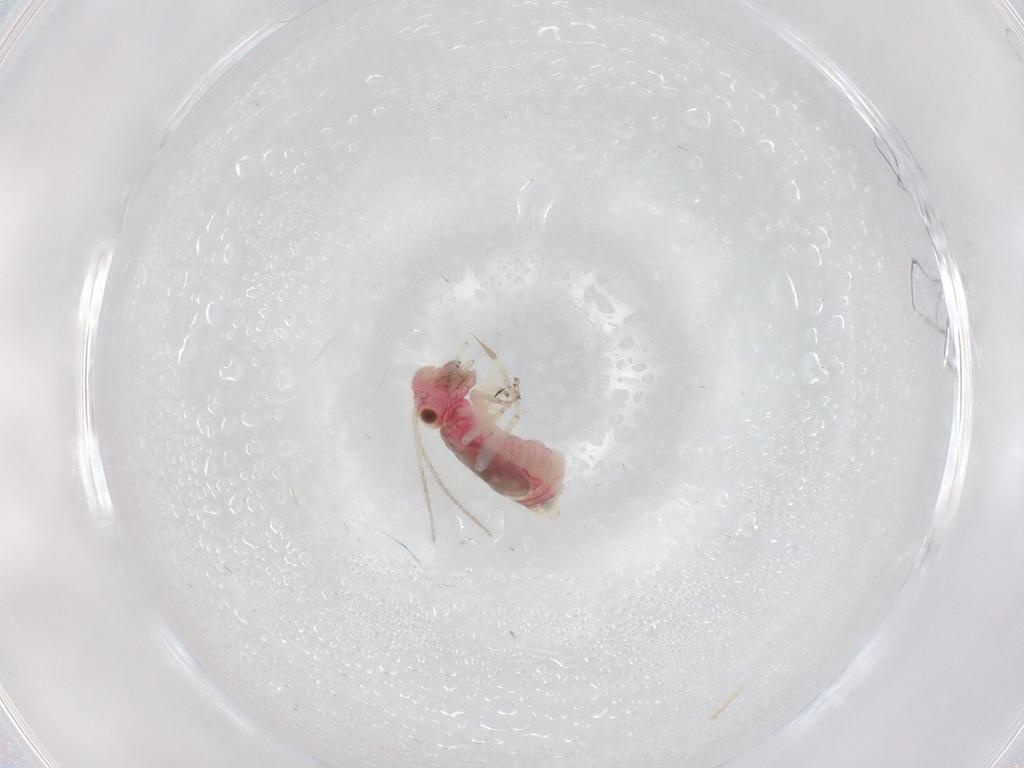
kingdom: Animalia
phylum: Arthropoda
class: Insecta
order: Psocodea
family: Caeciliusidae
